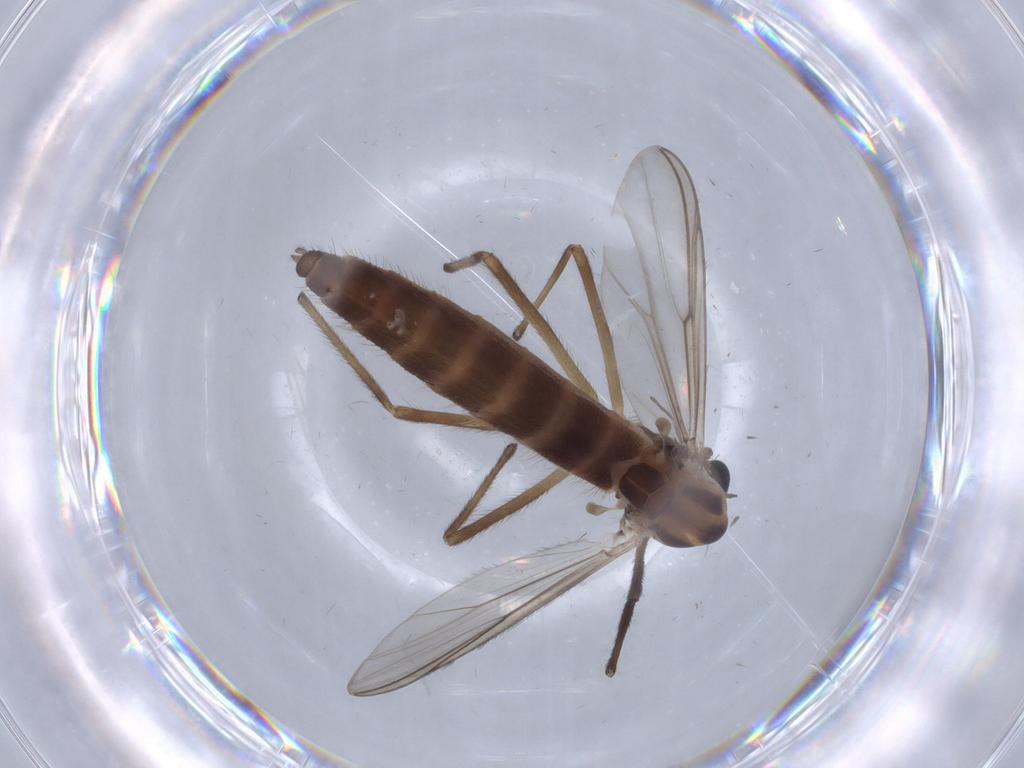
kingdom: Animalia
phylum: Arthropoda
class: Insecta
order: Diptera
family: Chironomidae
